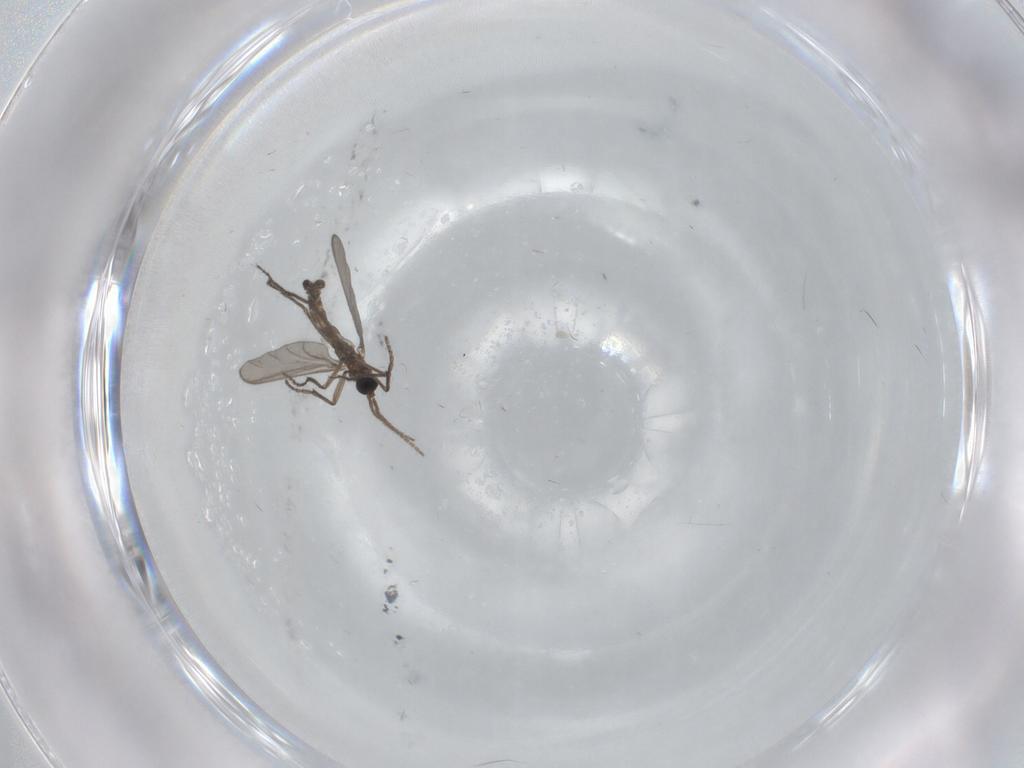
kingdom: Animalia
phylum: Arthropoda
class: Insecta
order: Diptera
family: Sciaridae
